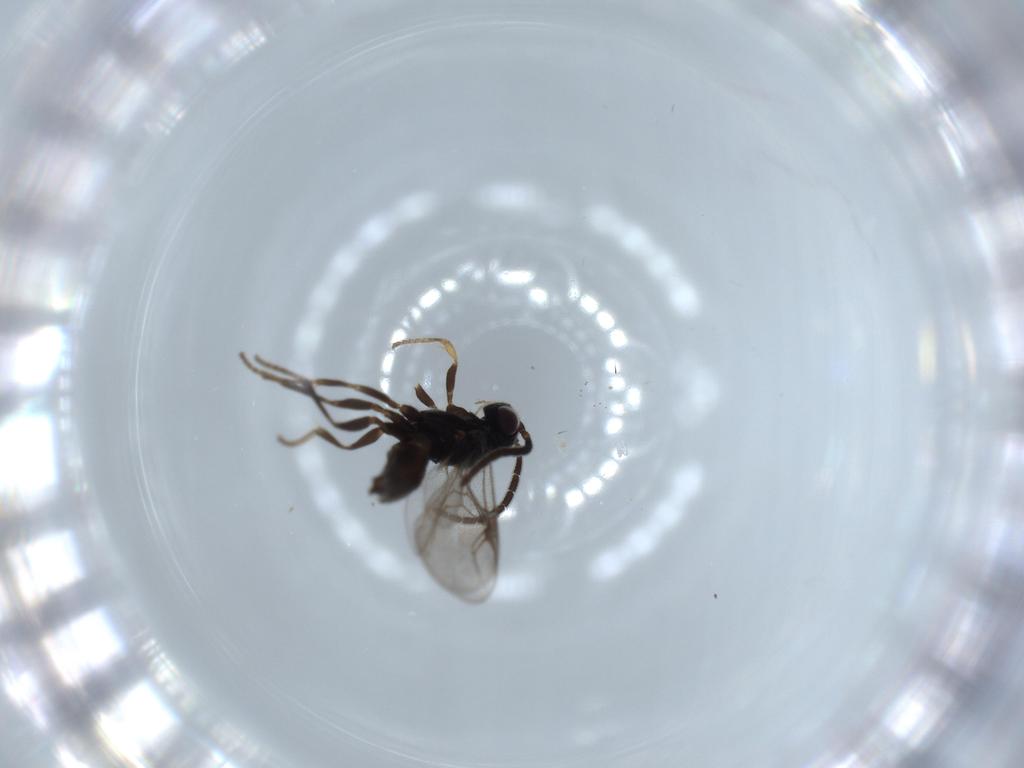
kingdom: Animalia
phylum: Arthropoda
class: Insecta
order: Hymenoptera
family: Dryinidae
